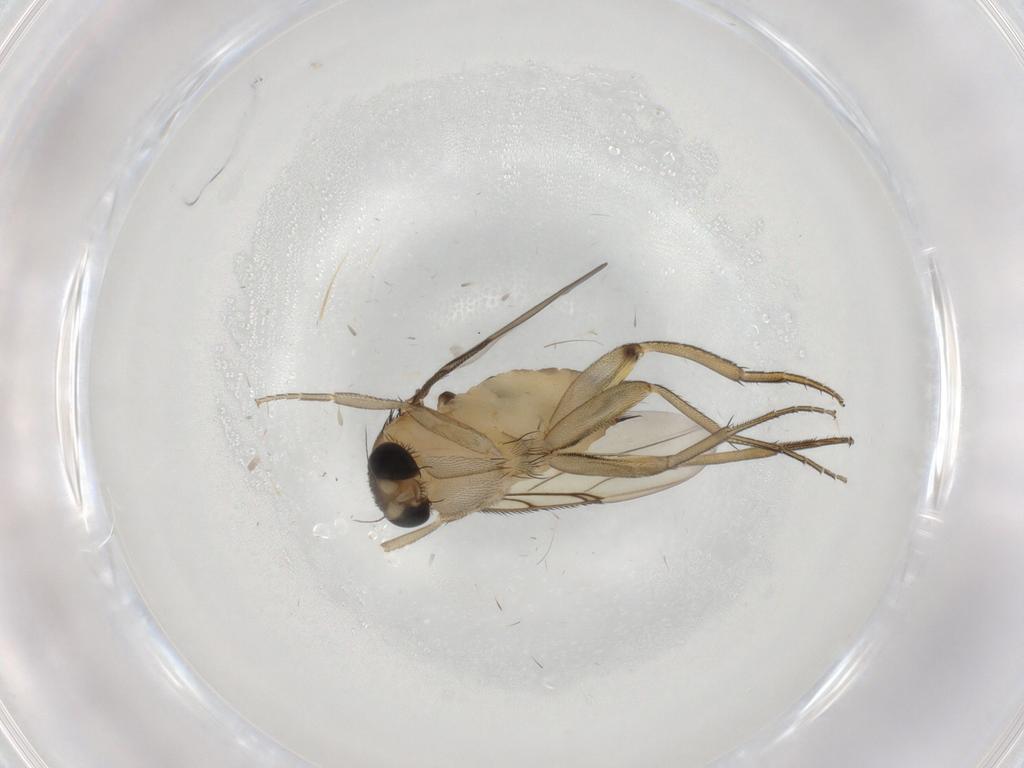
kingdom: Animalia
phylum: Arthropoda
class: Insecta
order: Diptera
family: Phoridae
